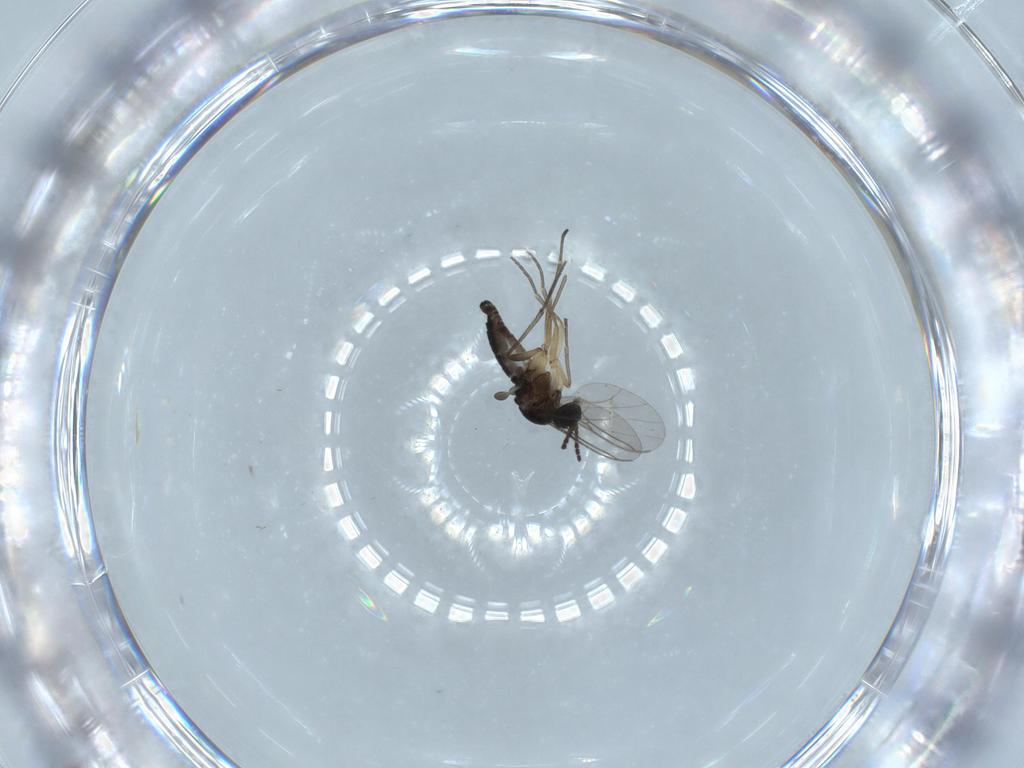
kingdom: Animalia
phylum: Arthropoda
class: Insecta
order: Diptera
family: Sciaridae
